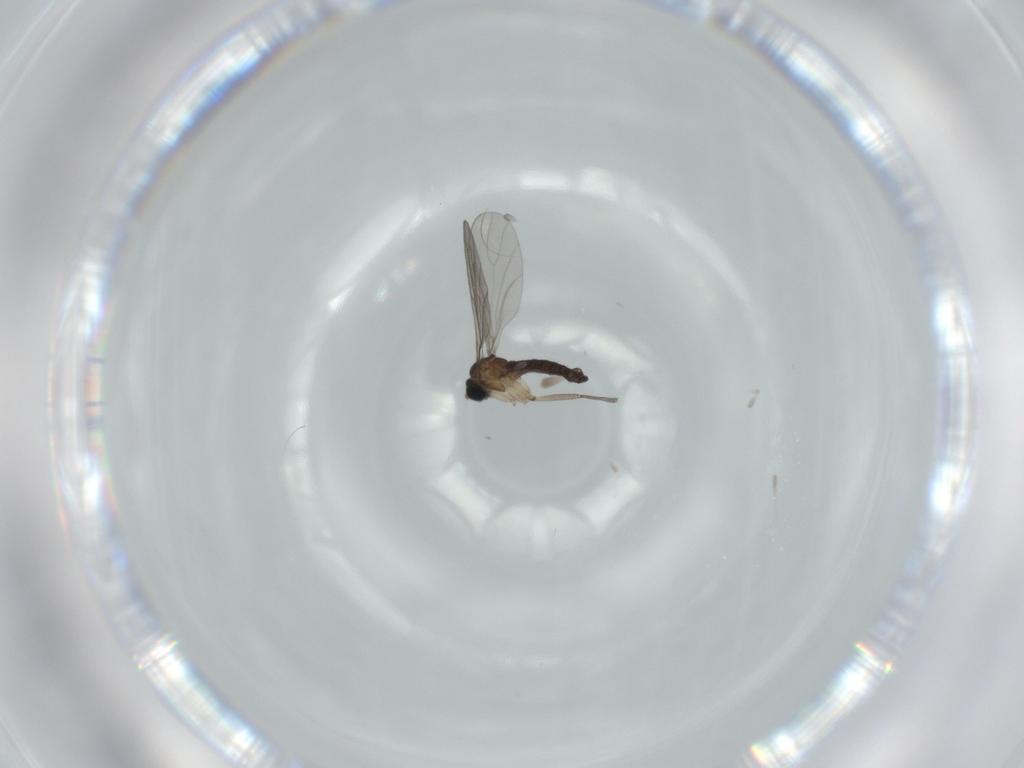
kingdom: Animalia
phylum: Arthropoda
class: Insecta
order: Diptera
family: Sciaridae
